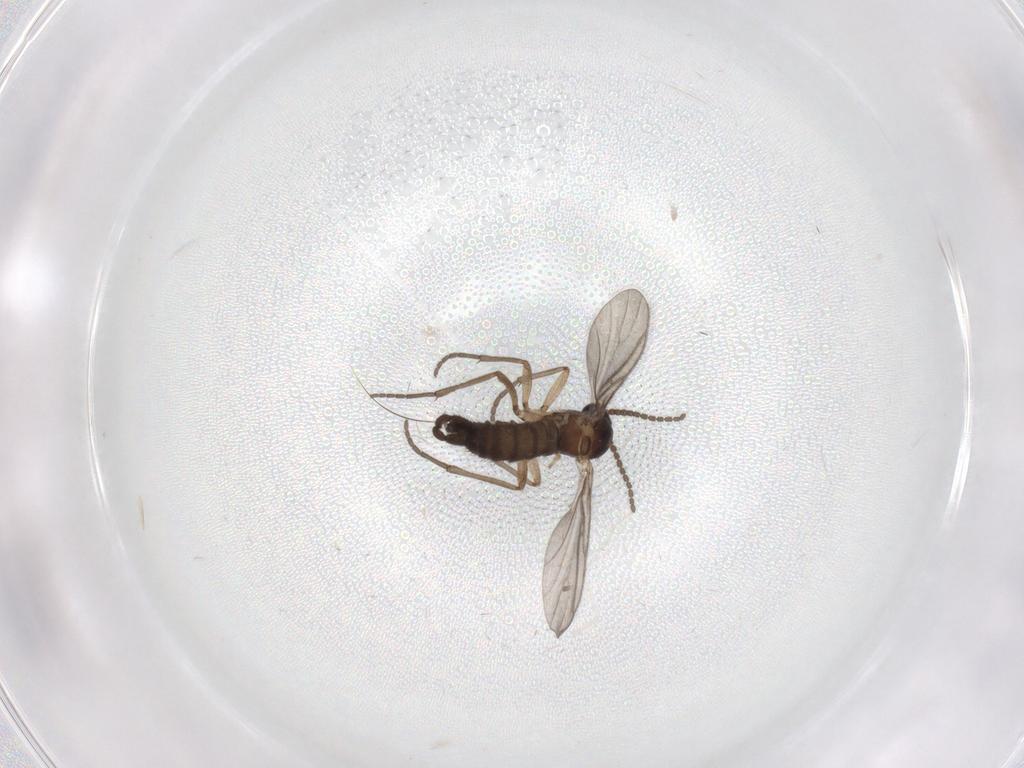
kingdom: Animalia
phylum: Arthropoda
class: Insecta
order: Diptera
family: Sciaridae
